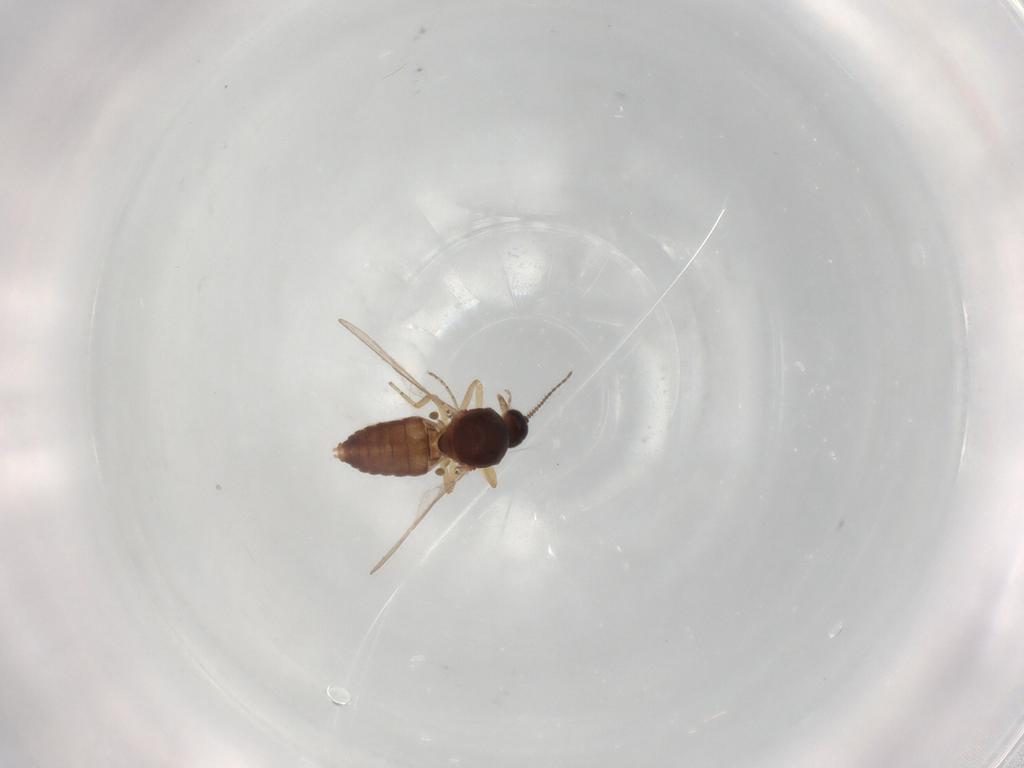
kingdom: Animalia
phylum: Arthropoda
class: Insecta
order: Diptera
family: Ceratopogonidae
